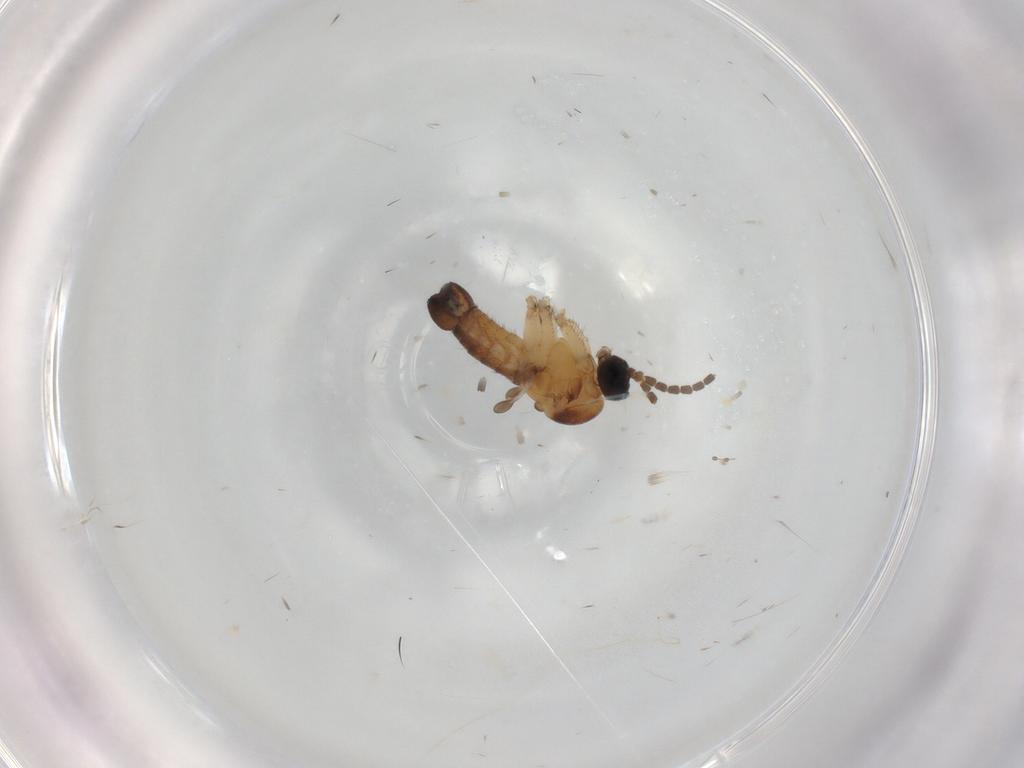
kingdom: Animalia
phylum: Arthropoda
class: Insecta
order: Diptera
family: Sciaridae
